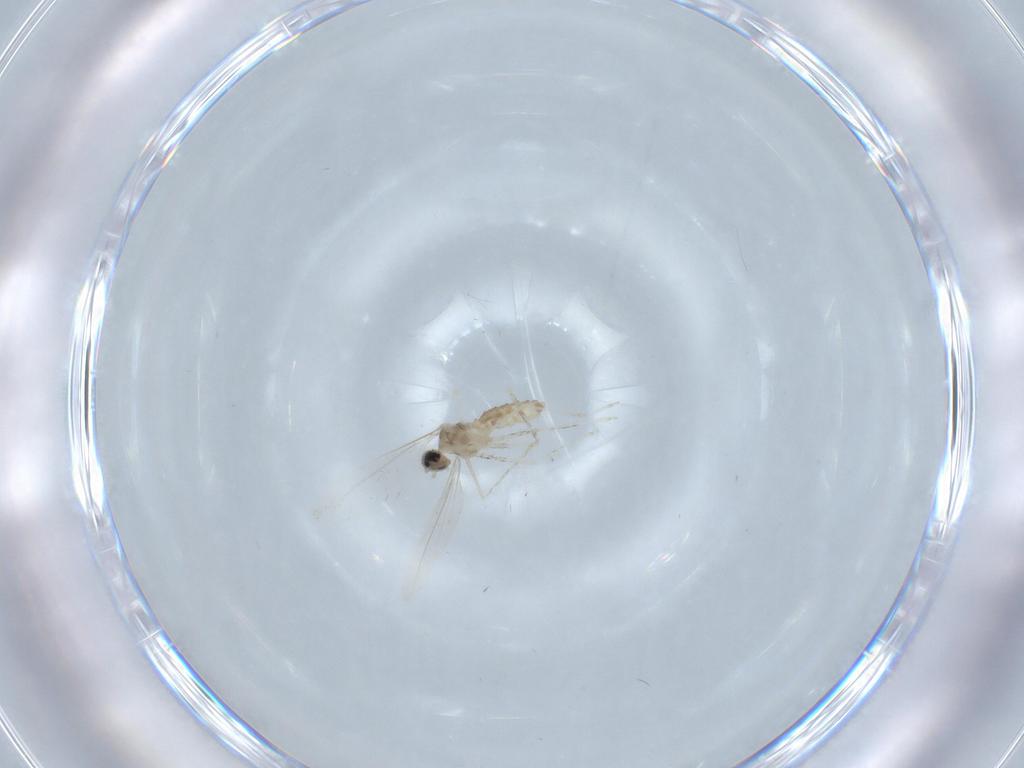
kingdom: Animalia
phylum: Arthropoda
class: Insecta
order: Diptera
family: Cecidomyiidae
